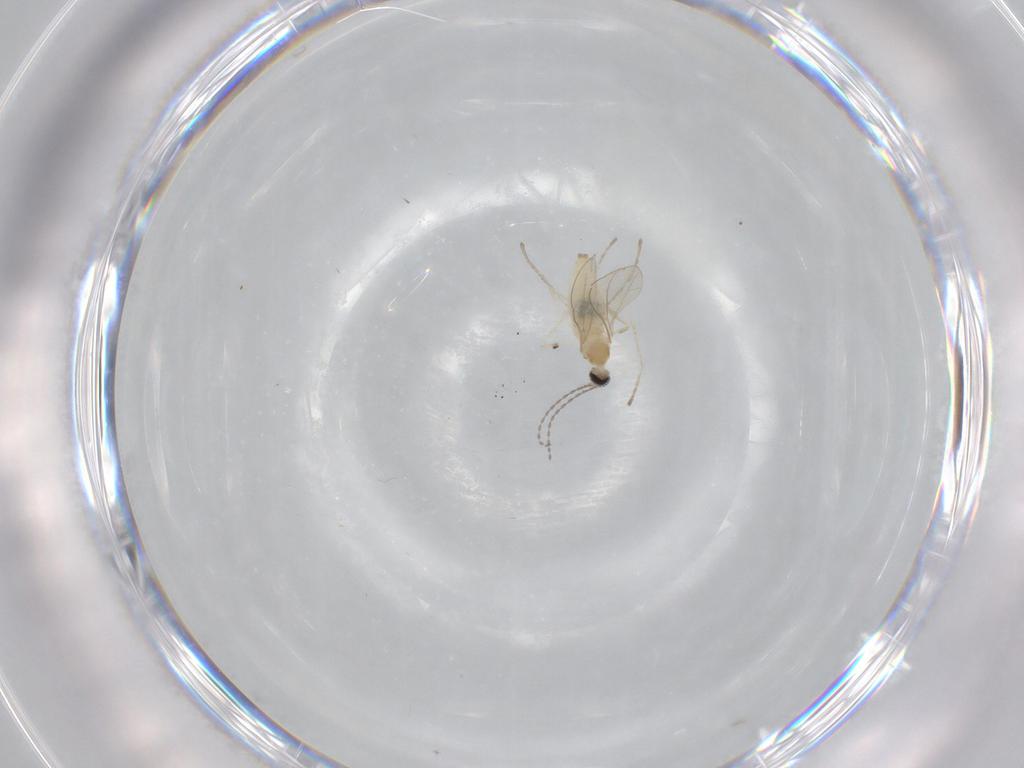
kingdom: Animalia
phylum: Arthropoda
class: Insecta
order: Diptera
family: Cecidomyiidae
